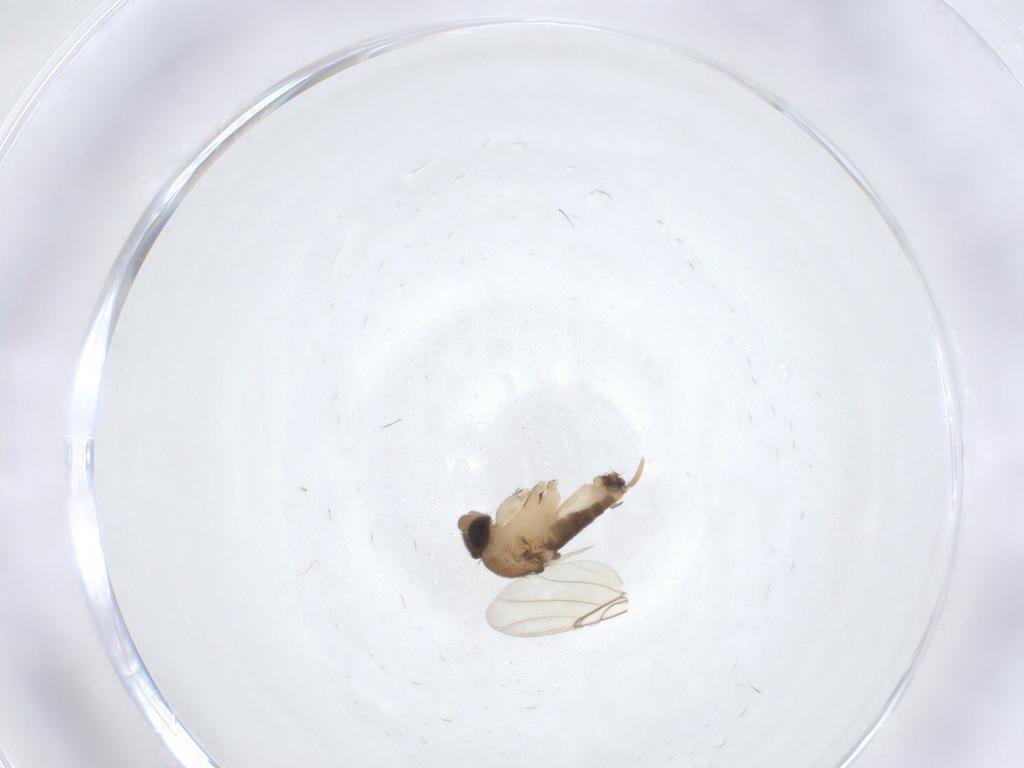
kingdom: Animalia
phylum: Arthropoda
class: Insecta
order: Diptera
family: Phoridae
